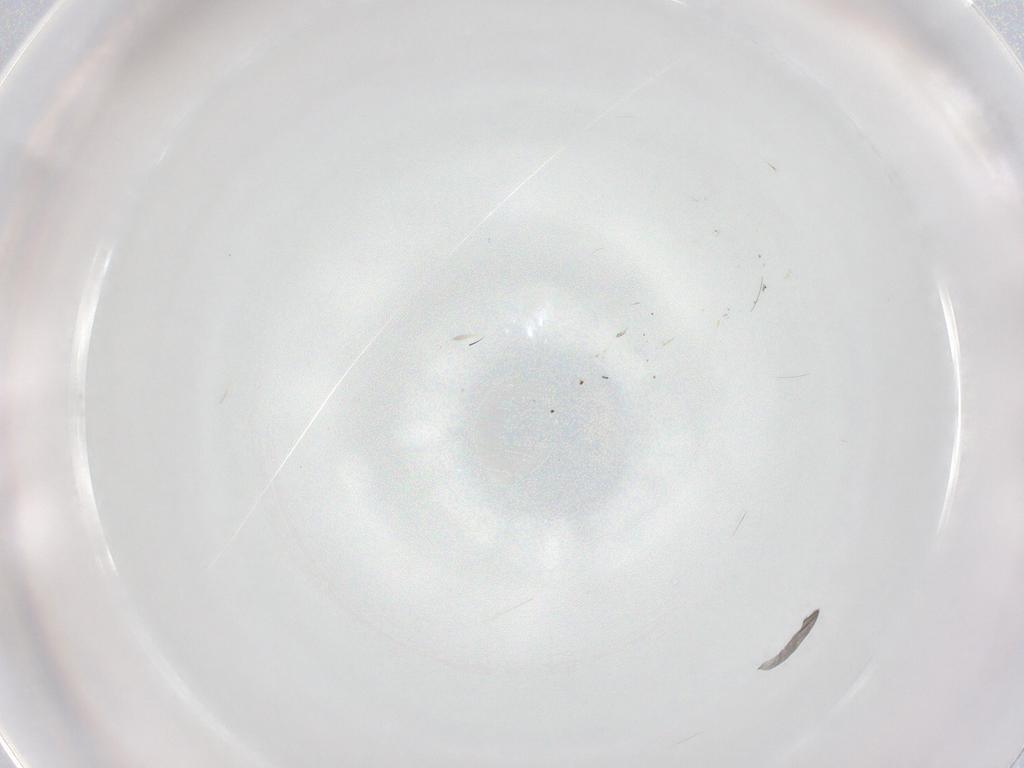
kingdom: Animalia
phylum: Arthropoda
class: Insecta
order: Diptera
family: Sciaridae
